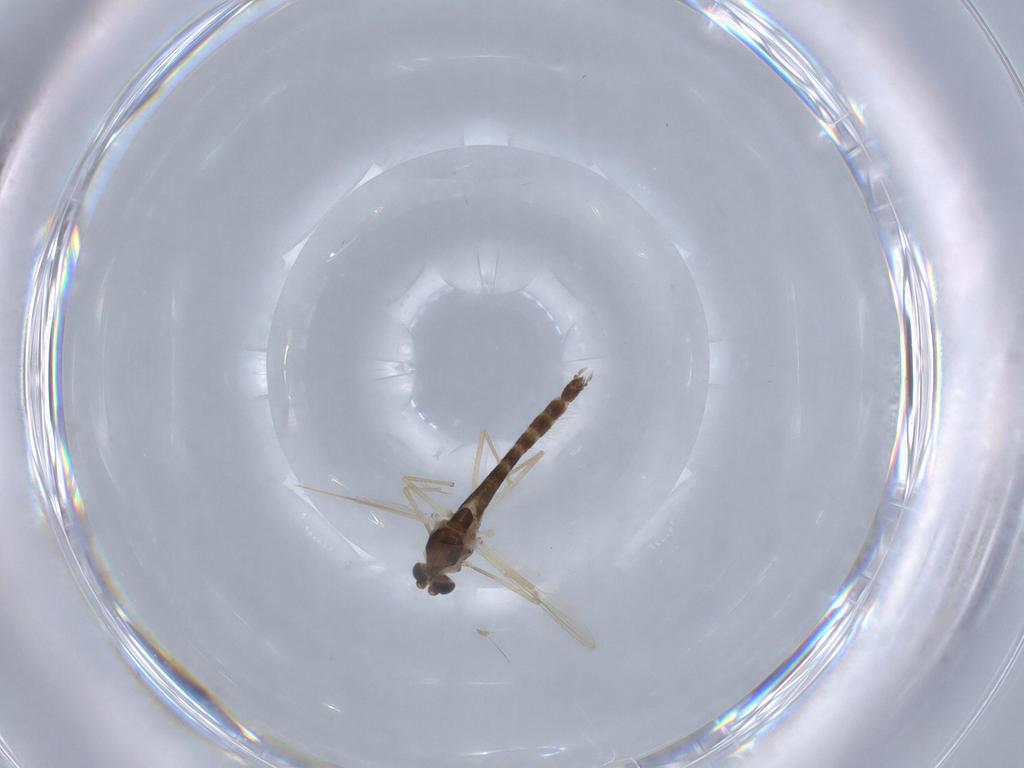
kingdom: Animalia
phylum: Arthropoda
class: Insecta
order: Diptera
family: Chironomidae
